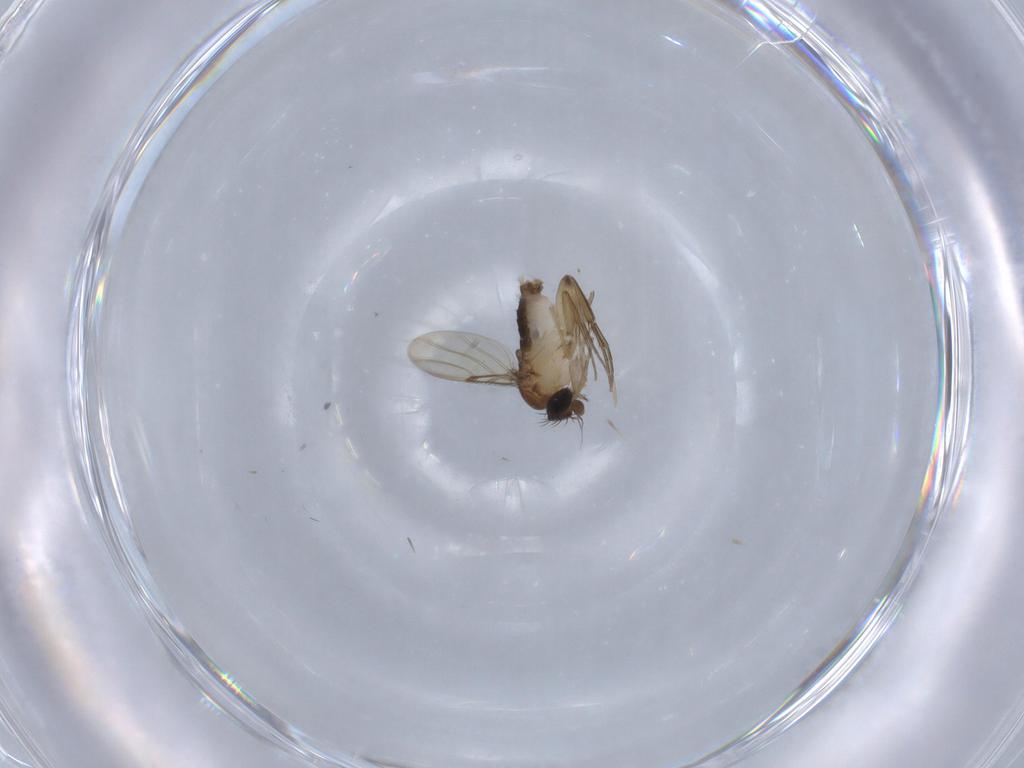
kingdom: Animalia
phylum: Arthropoda
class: Insecta
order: Diptera
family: Phoridae
